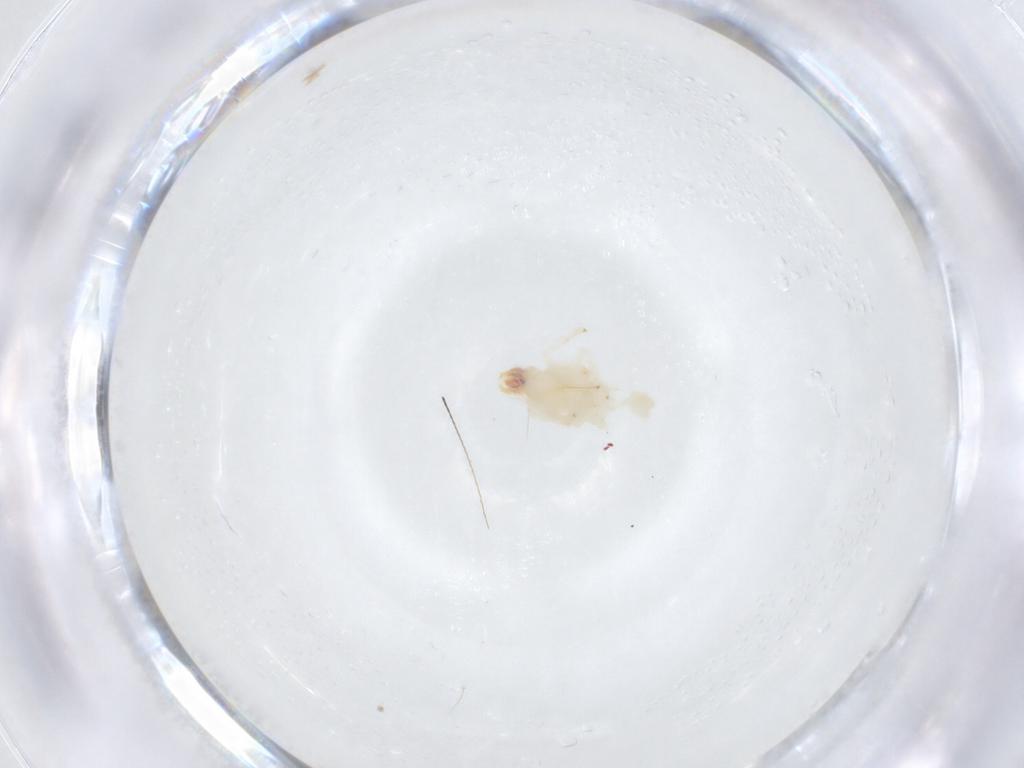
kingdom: Animalia
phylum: Arthropoda
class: Insecta
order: Hemiptera
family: Nogodinidae
